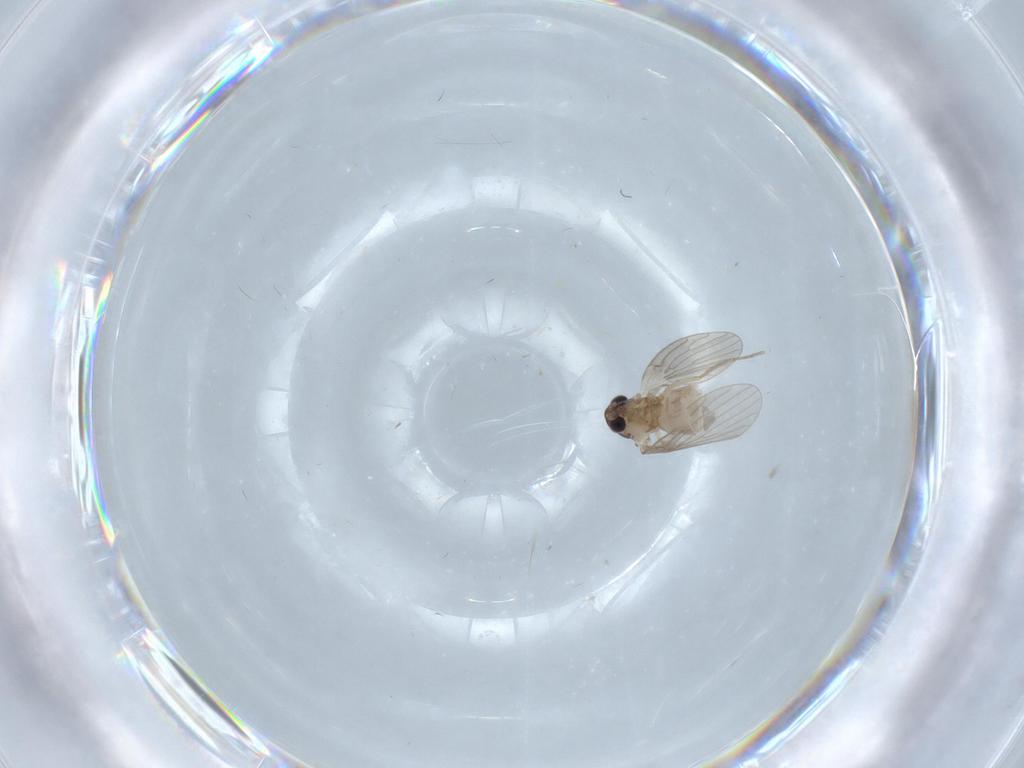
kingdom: Animalia
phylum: Arthropoda
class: Insecta
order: Diptera
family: Psychodidae
